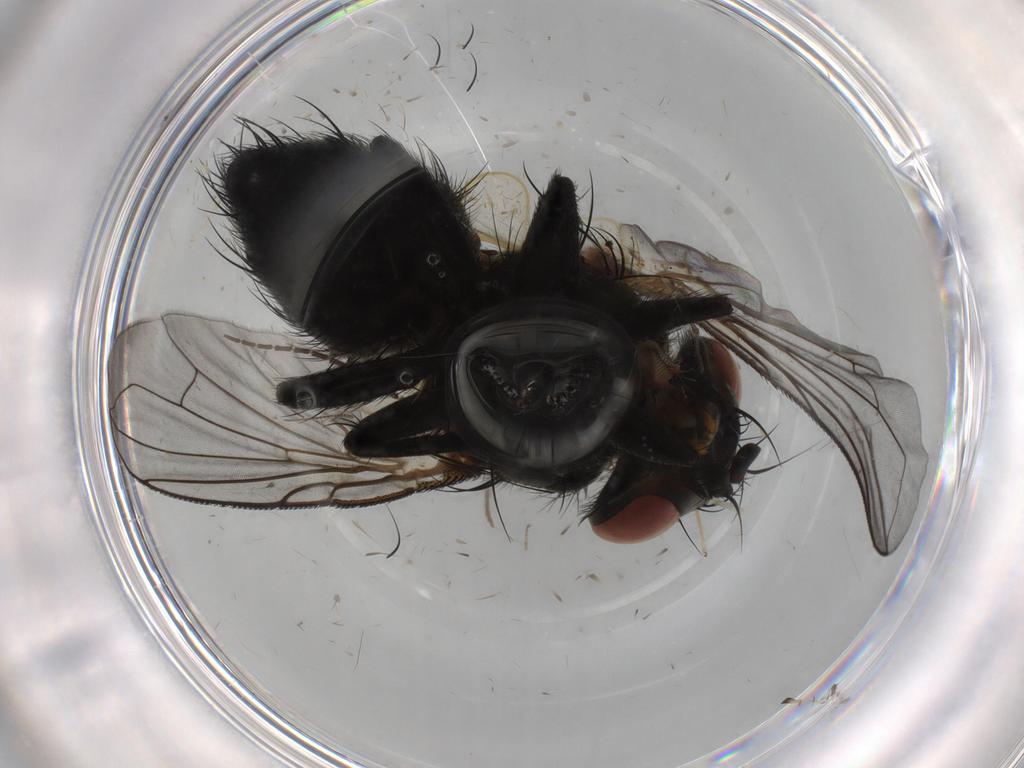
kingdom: Animalia
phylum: Arthropoda
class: Insecta
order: Diptera
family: Tachinidae
